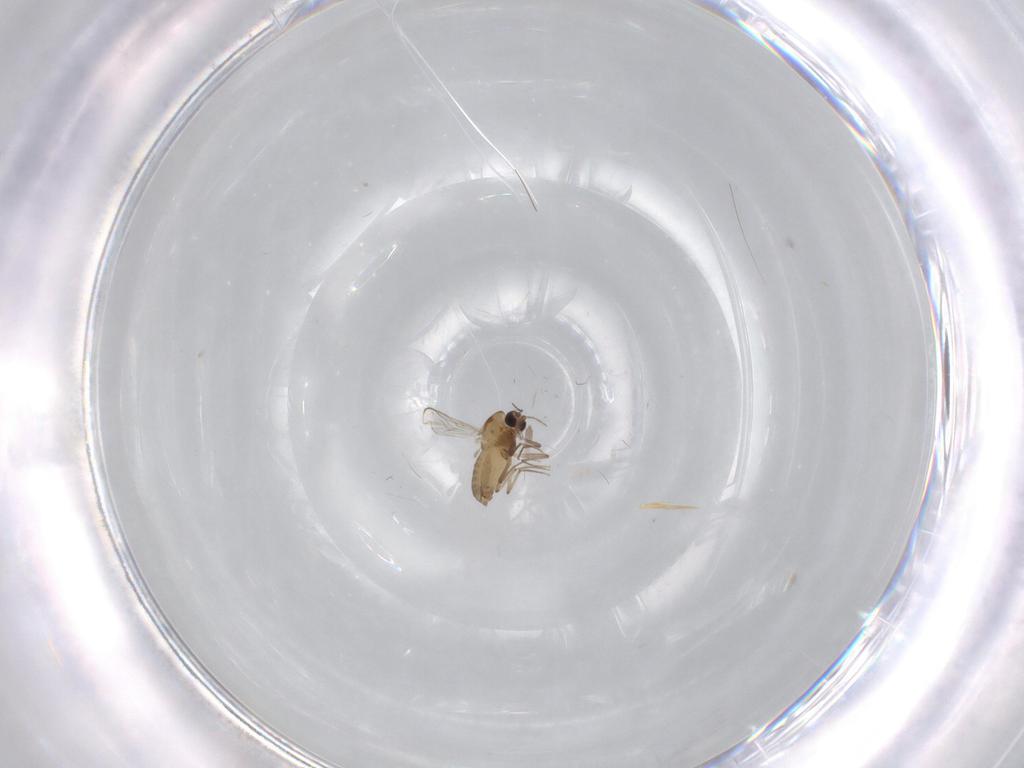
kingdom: Animalia
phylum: Arthropoda
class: Insecta
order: Diptera
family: Chironomidae
